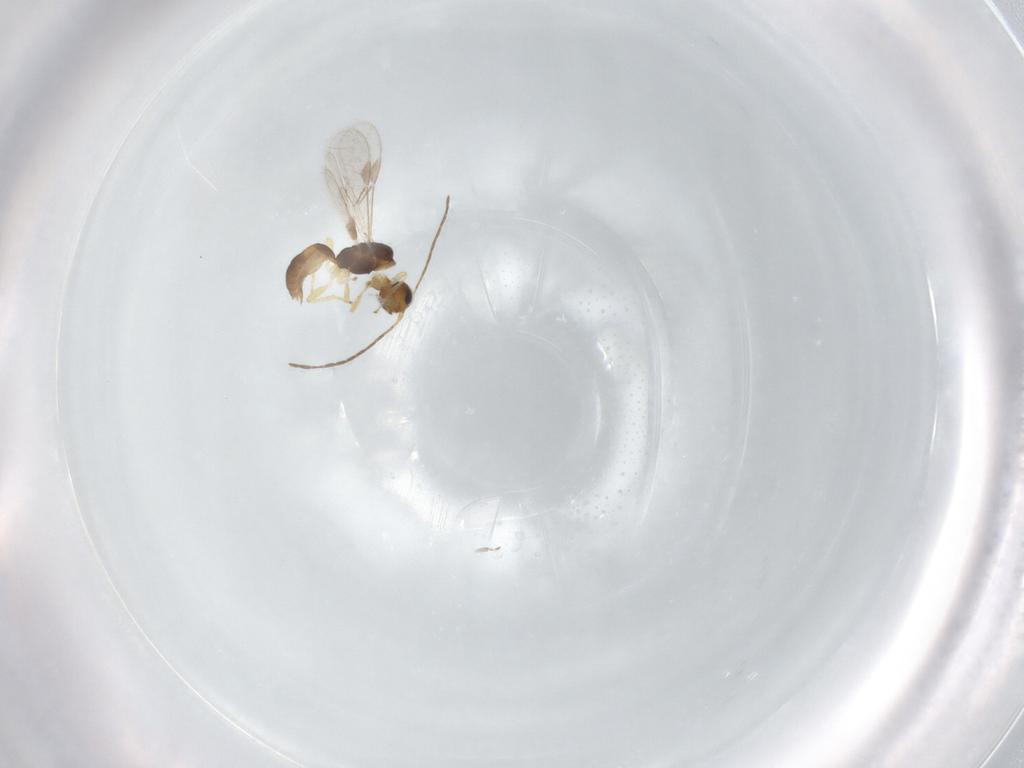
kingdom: Animalia
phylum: Arthropoda
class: Insecta
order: Hymenoptera
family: Braconidae
